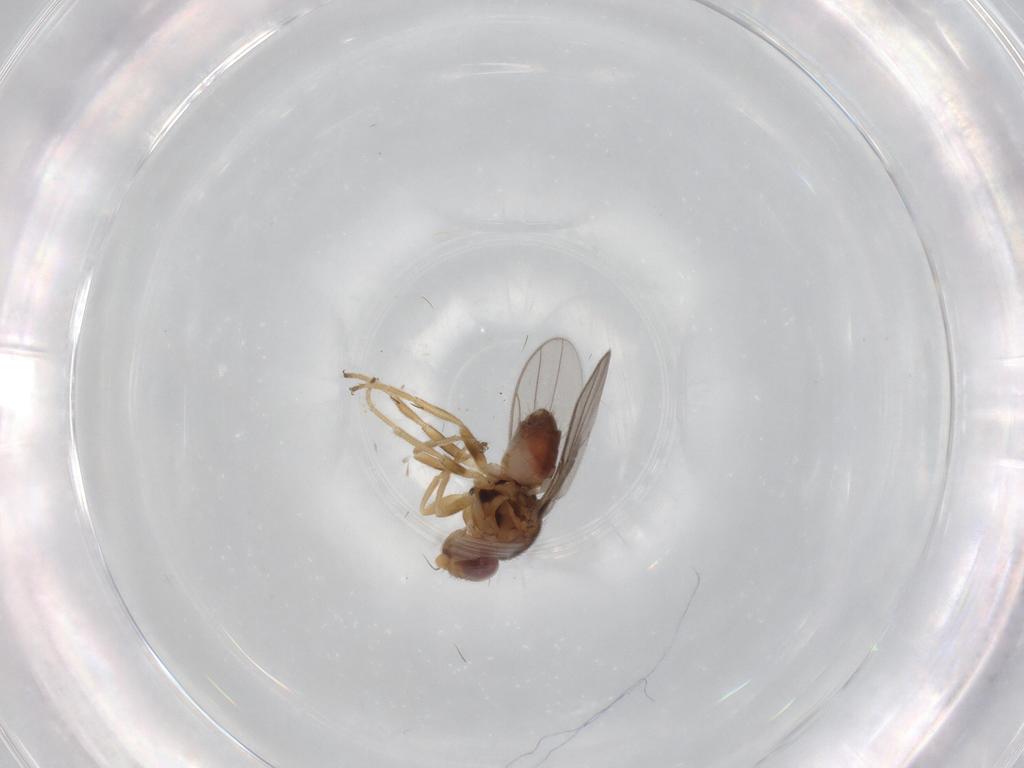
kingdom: Animalia
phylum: Arthropoda
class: Insecta
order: Diptera
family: Chloropidae
